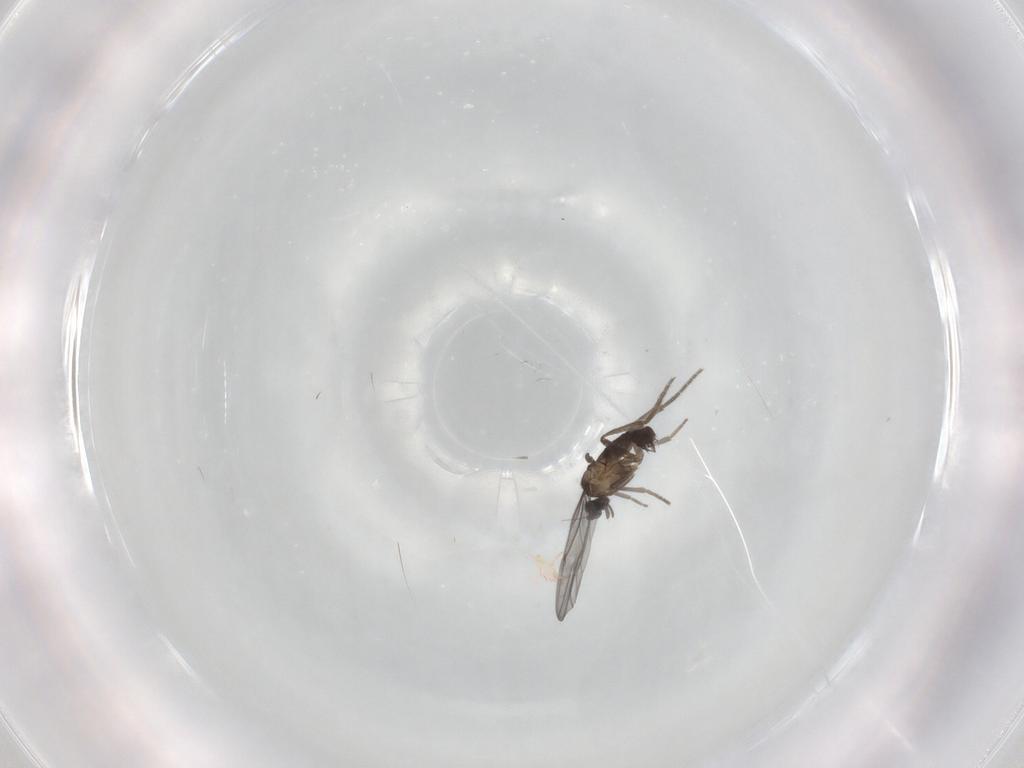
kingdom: Animalia
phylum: Arthropoda
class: Insecta
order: Diptera
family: Phoridae
